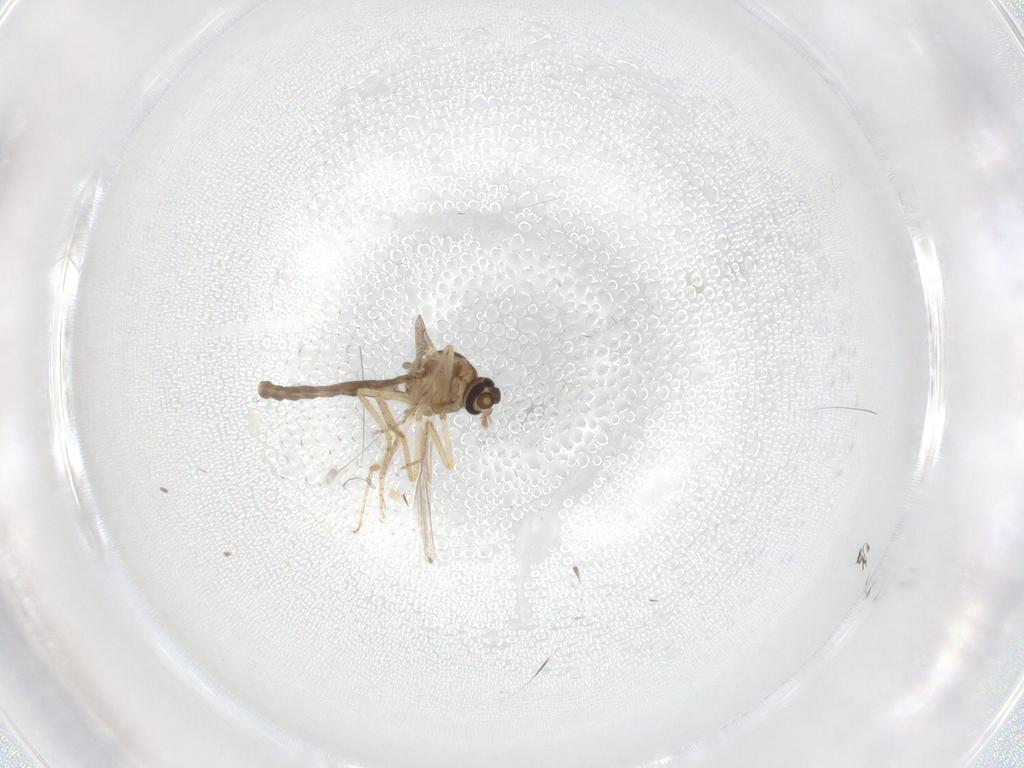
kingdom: Animalia
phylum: Arthropoda
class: Insecta
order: Diptera
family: Ceratopogonidae
